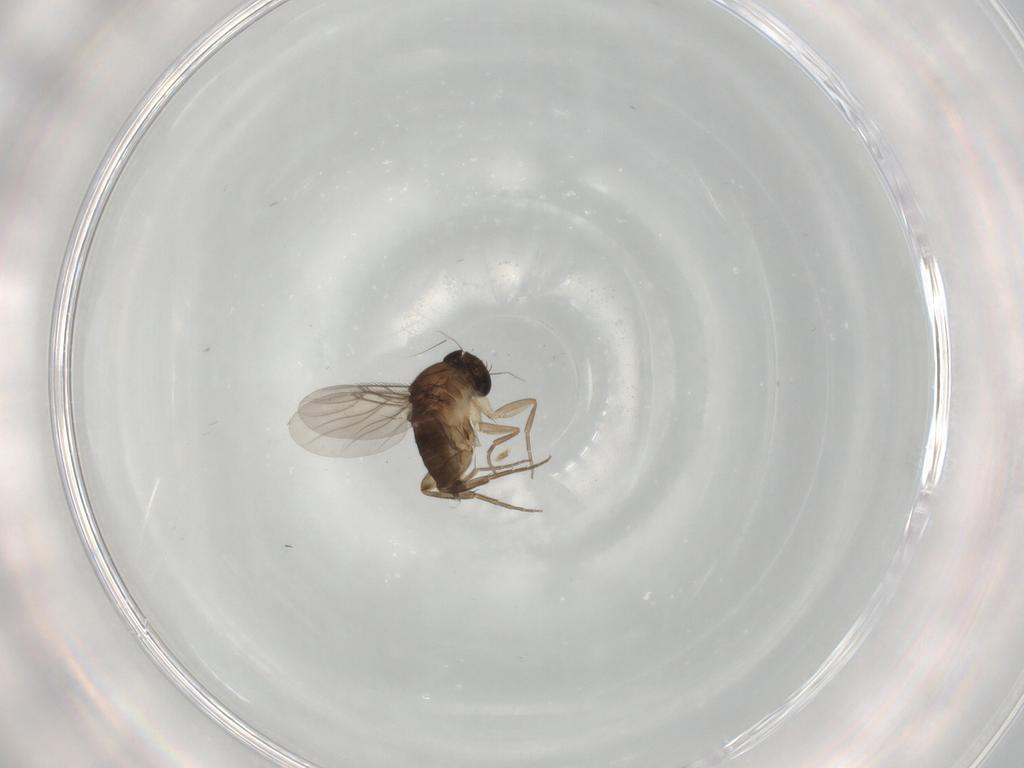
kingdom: Animalia
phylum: Arthropoda
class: Insecta
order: Diptera
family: Phoridae
